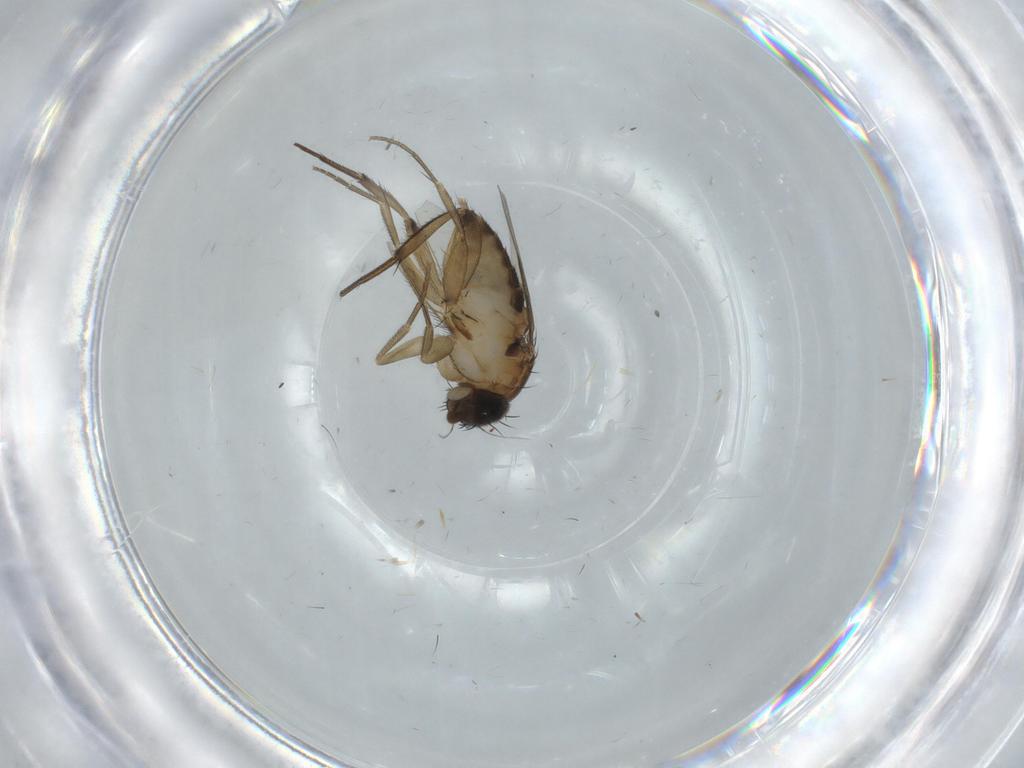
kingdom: Animalia
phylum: Arthropoda
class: Insecta
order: Diptera
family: Phoridae
